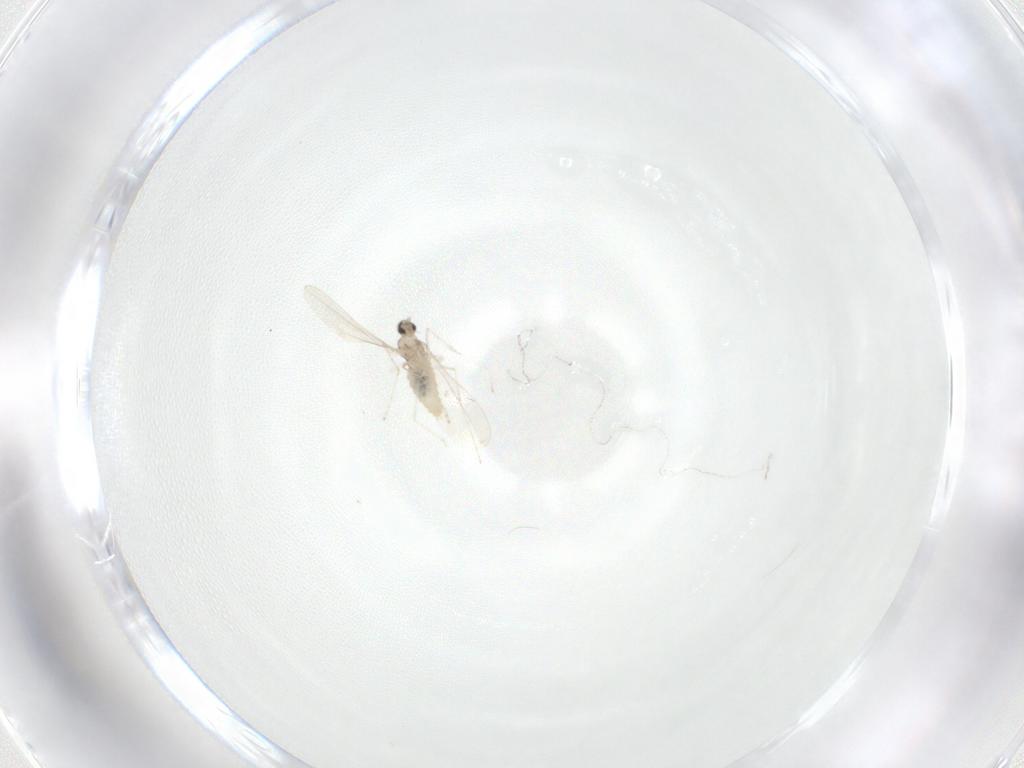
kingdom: Animalia
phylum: Arthropoda
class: Insecta
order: Diptera
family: Cecidomyiidae
